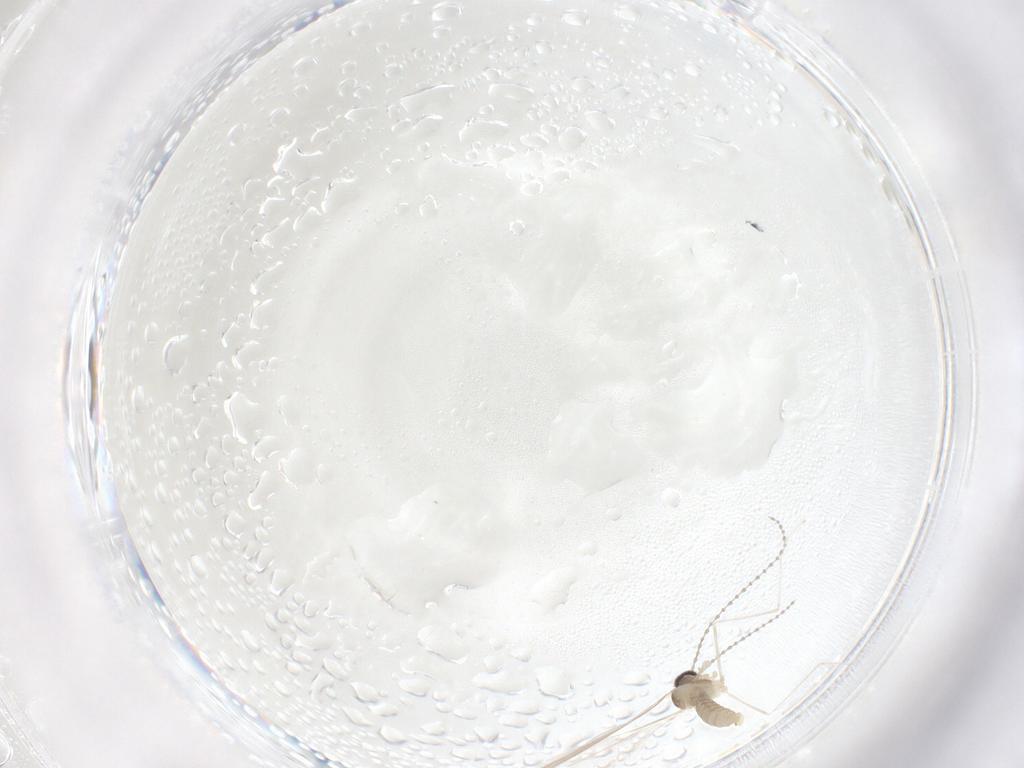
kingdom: Animalia
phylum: Arthropoda
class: Insecta
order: Diptera
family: Cecidomyiidae
